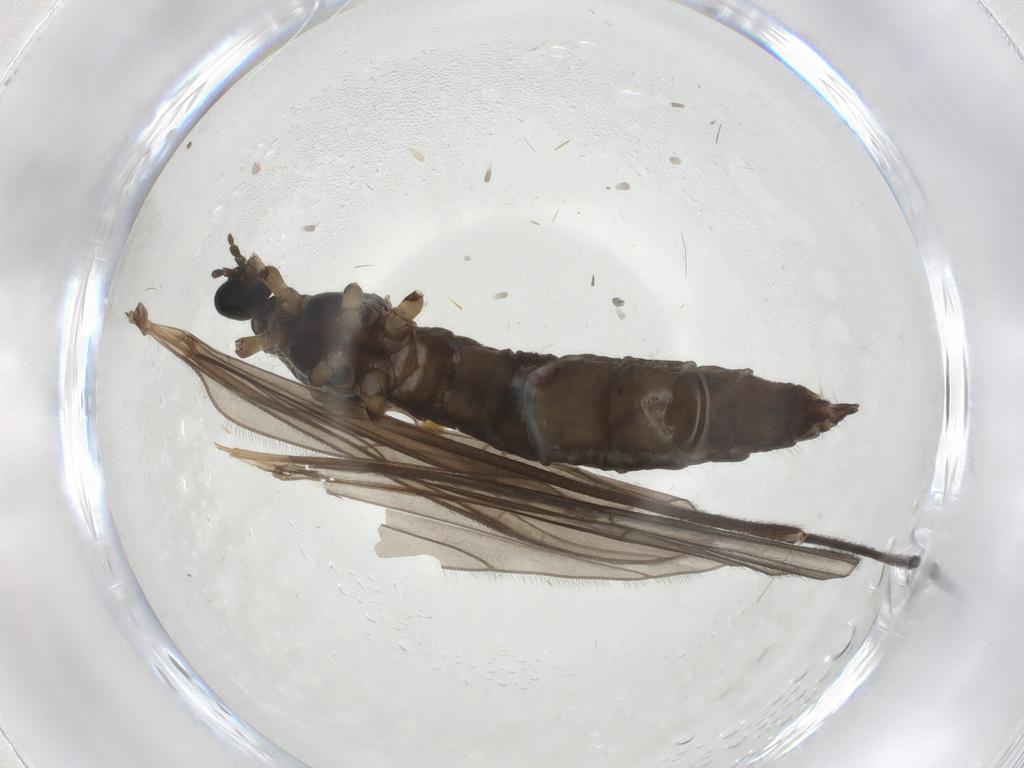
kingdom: Animalia
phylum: Arthropoda
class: Insecta
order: Diptera
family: Limoniidae
